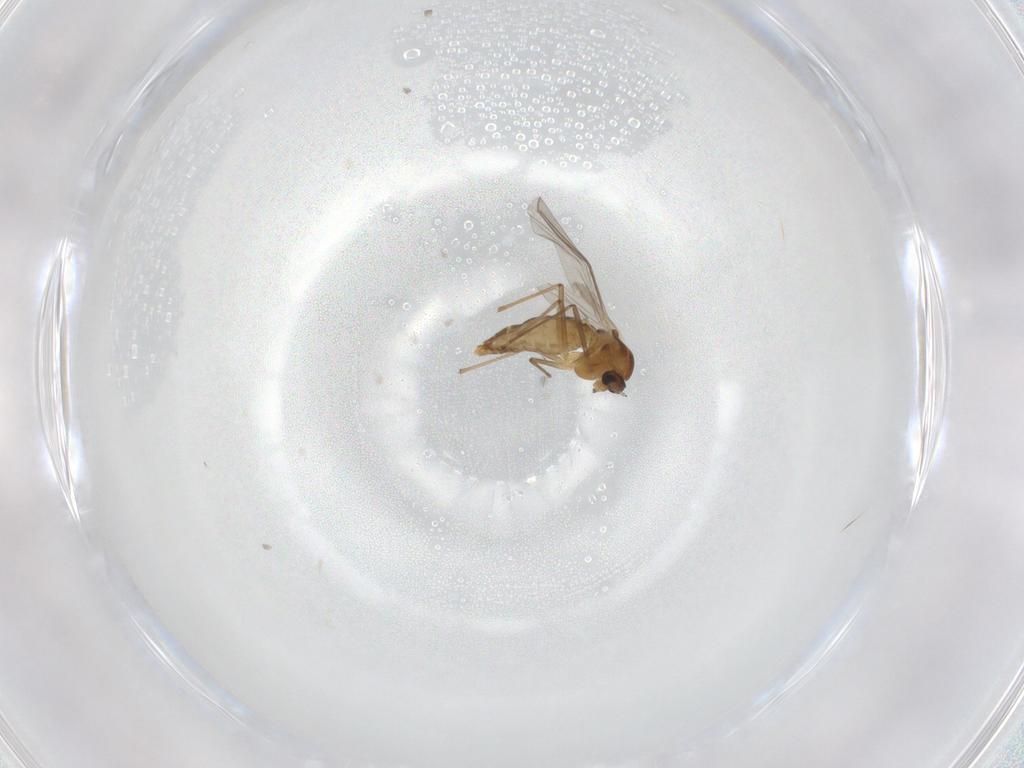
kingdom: Animalia
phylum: Arthropoda
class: Insecta
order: Diptera
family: Chironomidae
